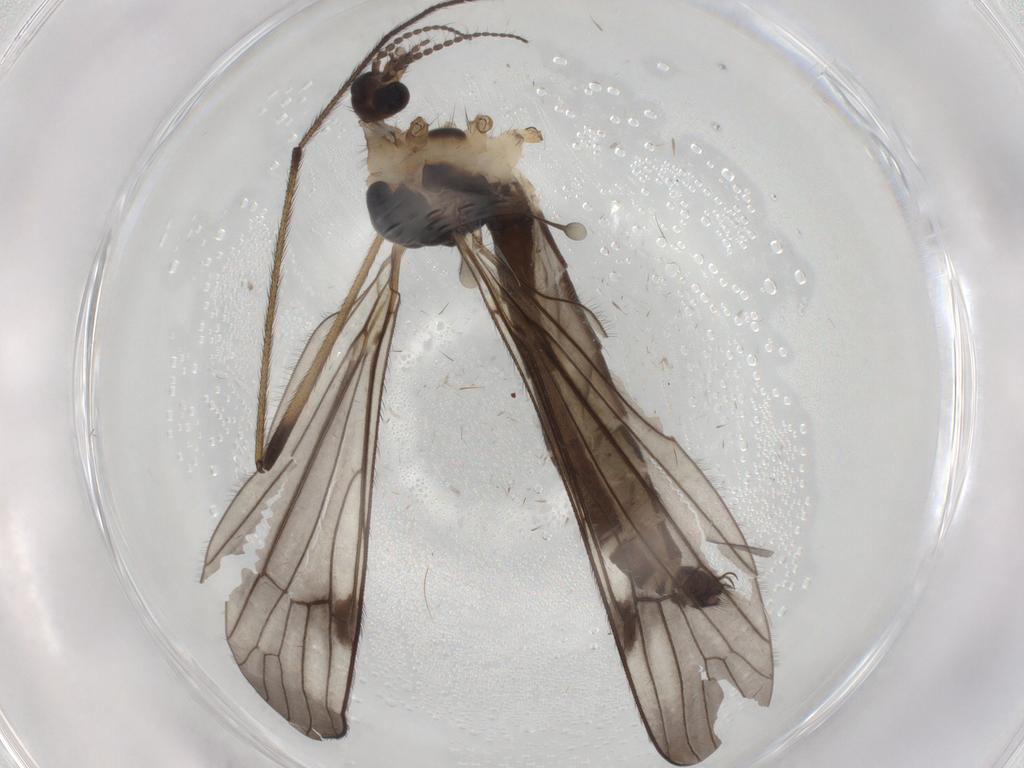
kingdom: Animalia
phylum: Arthropoda
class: Insecta
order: Diptera
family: Limoniidae
